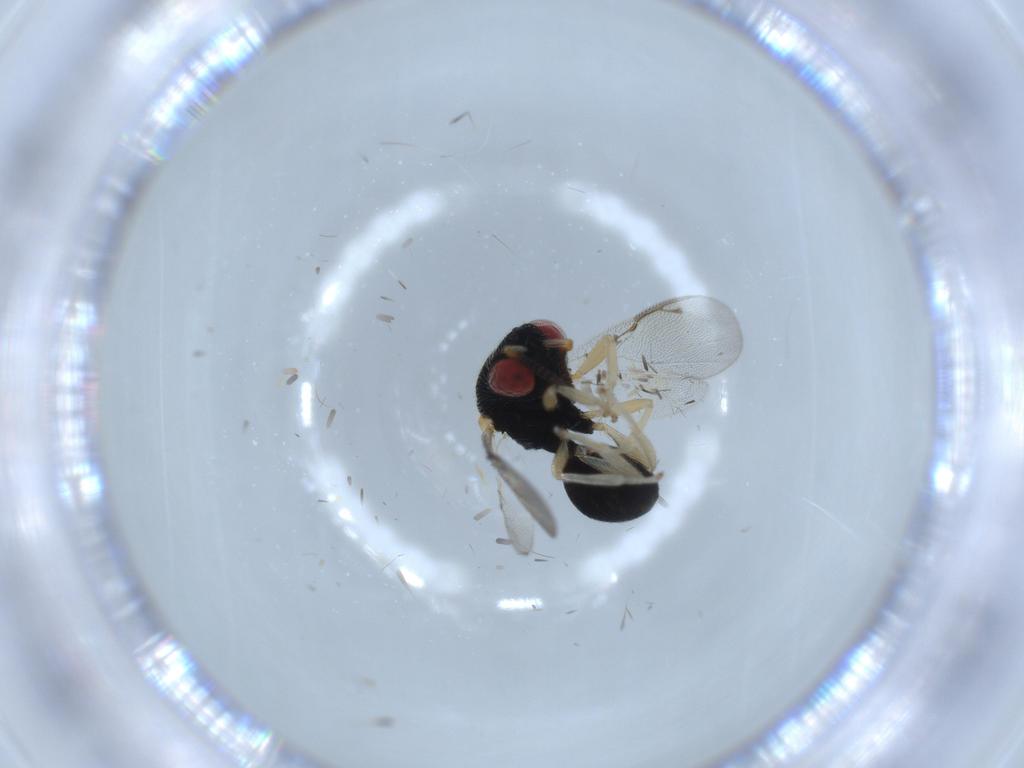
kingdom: Animalia
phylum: Arthropoda
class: Insecta
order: Hymenoptera
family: Eurytomidae
